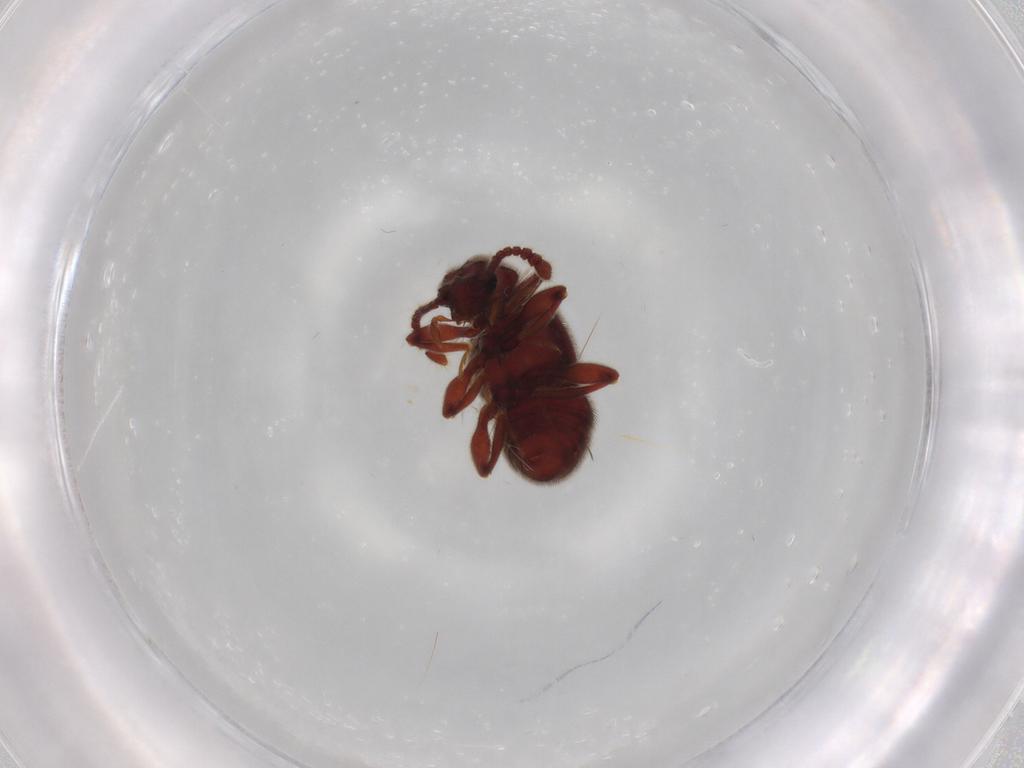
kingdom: Animalia
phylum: Arthropoda
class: Insecta
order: Coleoptera
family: Staphylinidae
